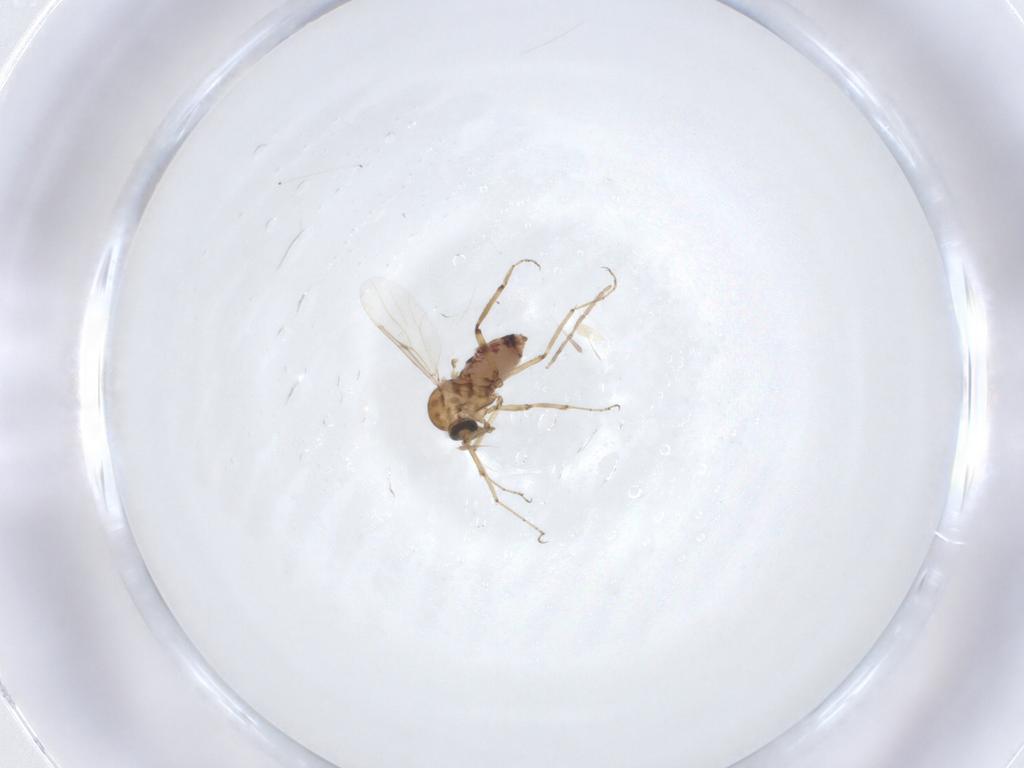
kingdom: Animalia
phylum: Arthropoda
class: Insecta
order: Diptera
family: Ceratopogonidae
